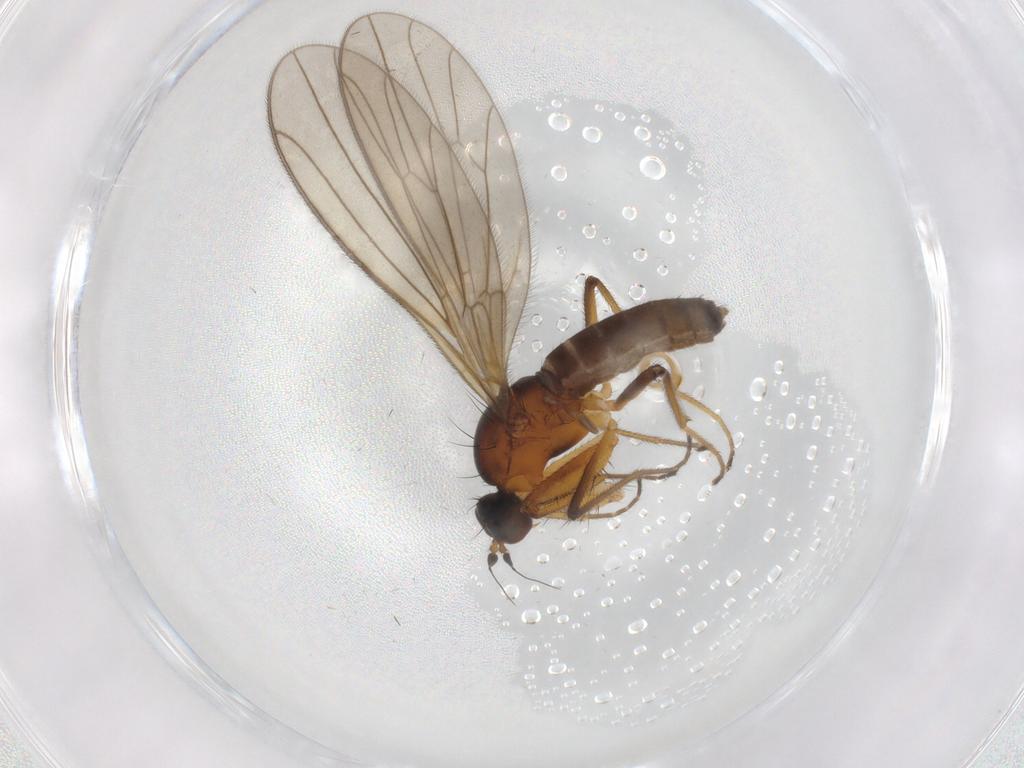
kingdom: Animalia
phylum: Arthropoda
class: Insecta
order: Diptera
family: Empididae
